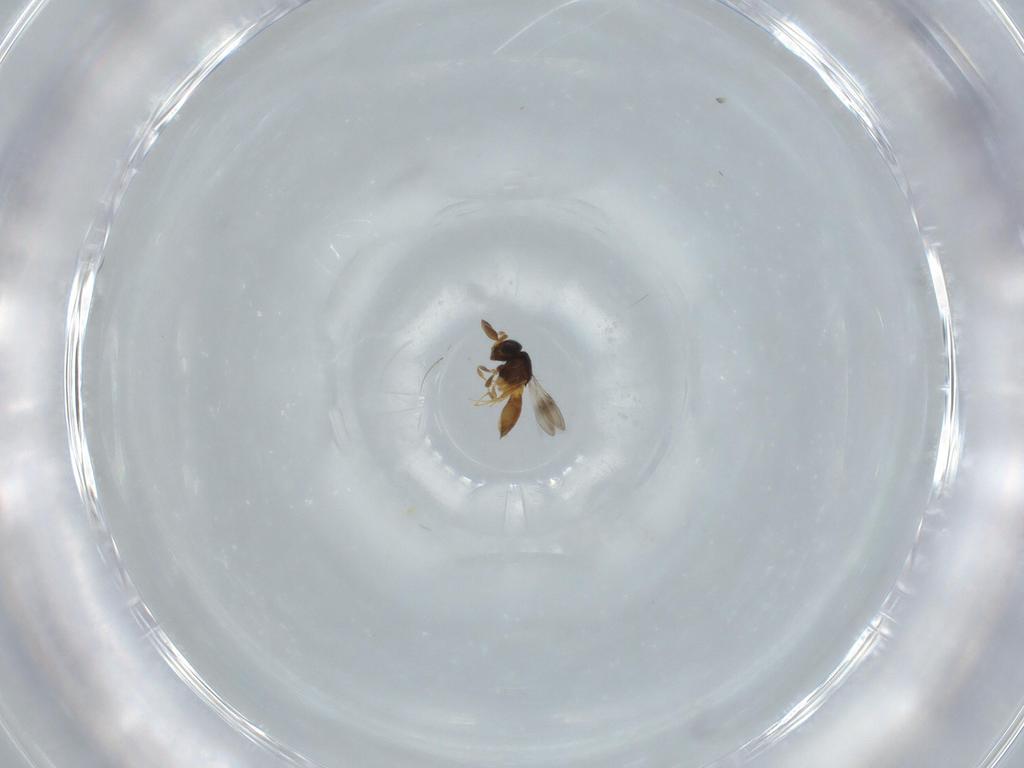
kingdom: Animalia
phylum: Arthropoda
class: Insecta
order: Hymenoptera
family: Scelionidae
